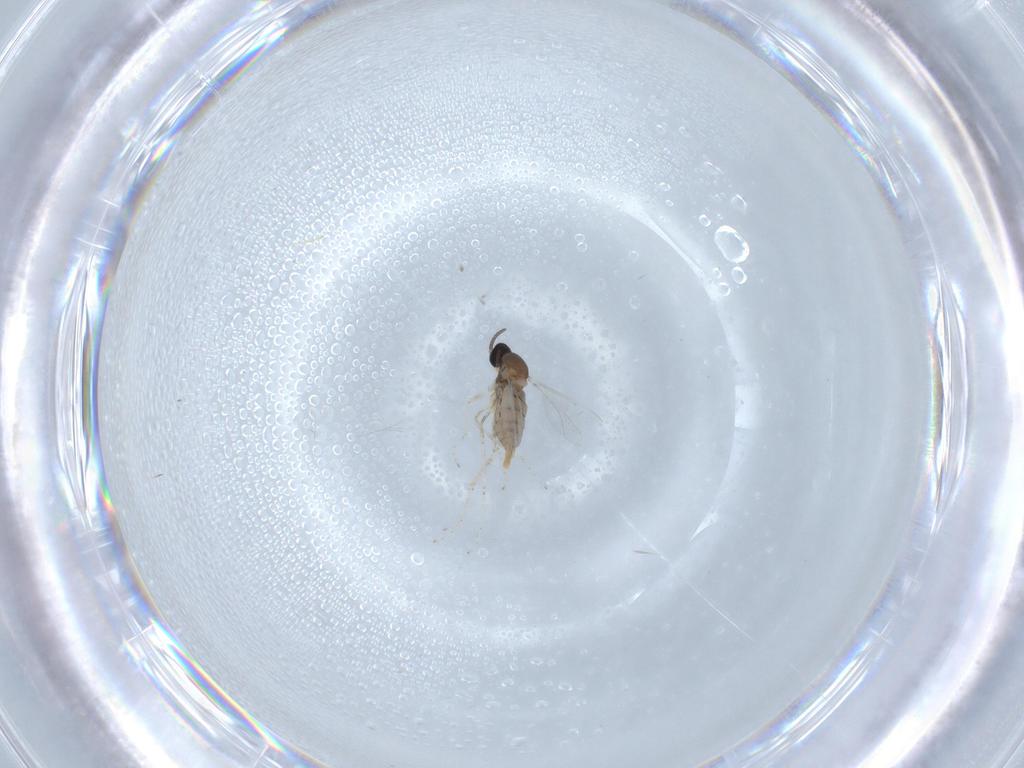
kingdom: Animalia
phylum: Arthropoda
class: Insecta
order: Diptera
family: Cecidomyiidae
